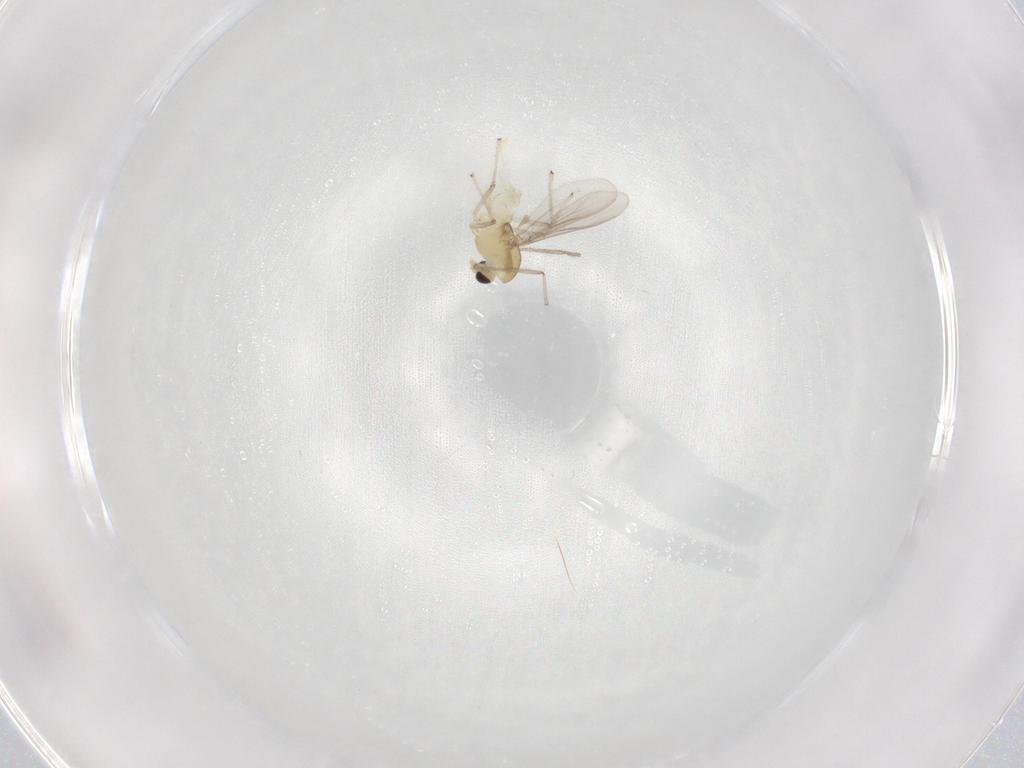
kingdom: Animalia
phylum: Arthropoda
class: Insecta
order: Diptera
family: Chironomidae
